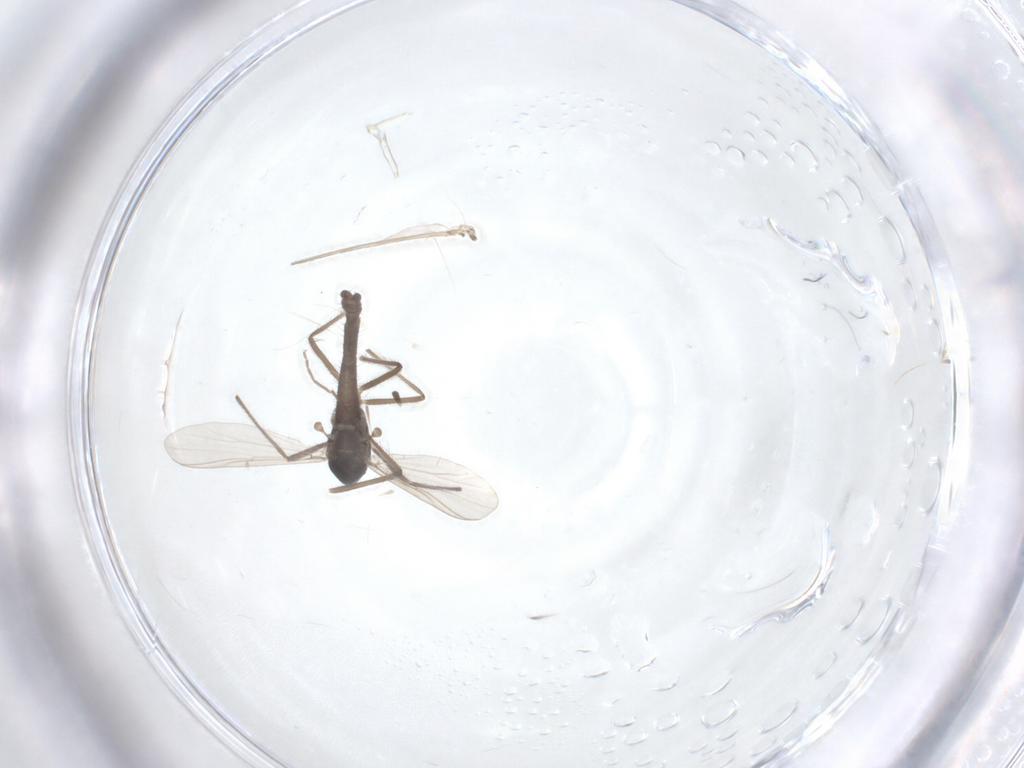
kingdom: Animalia
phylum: Arthropoda
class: Insecta
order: Diptera
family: Chironomidae
